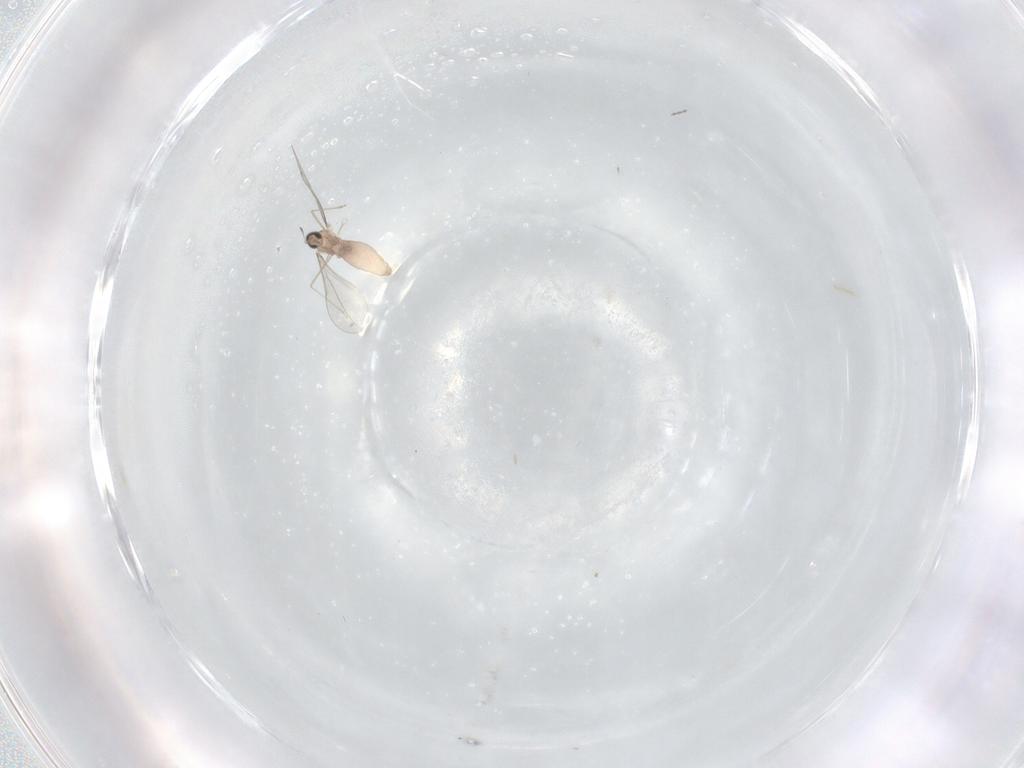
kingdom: Animalia
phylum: Arthropoda
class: Insecta
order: Diptera
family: Cecidomyiidae
